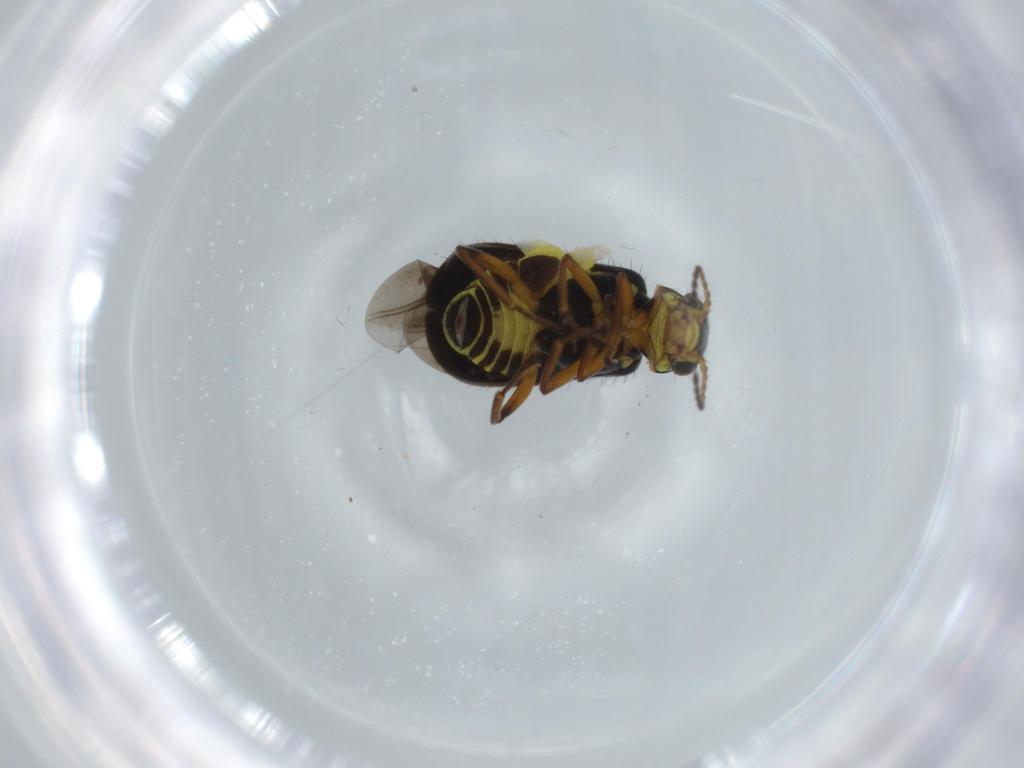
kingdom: Animalia
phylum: Arthropoda
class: Insecta
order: Coleoptera
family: Melyridae
